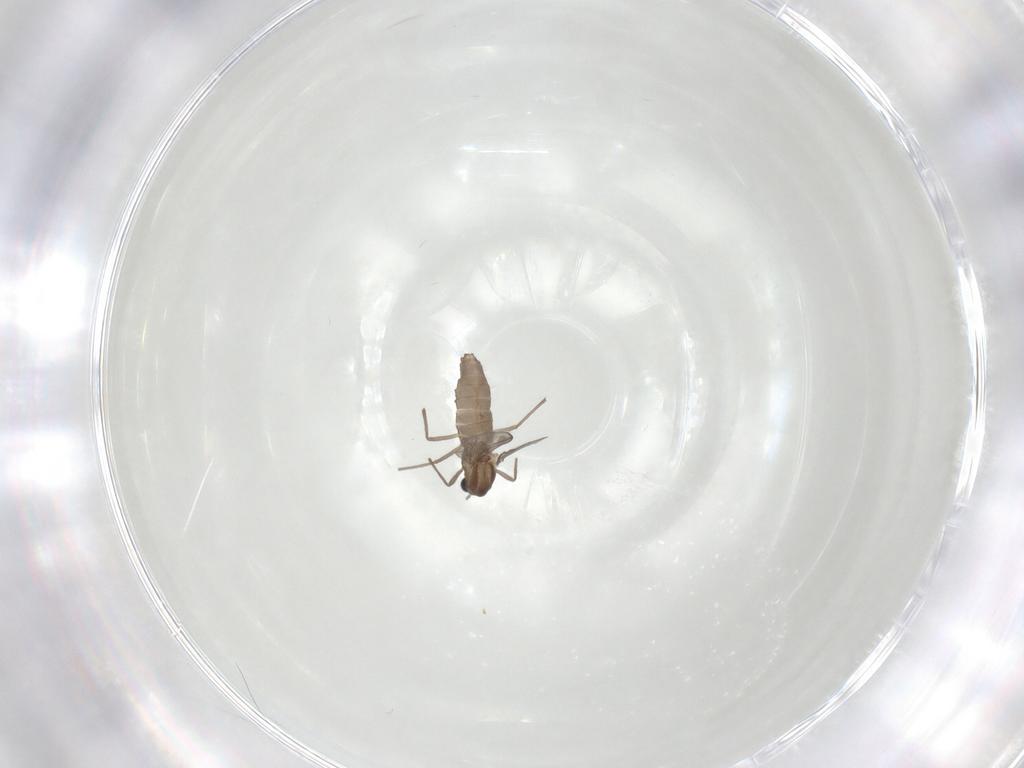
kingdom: Animalia
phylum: Arthropoda
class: Insecta
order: Diptera
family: Chironomidae
